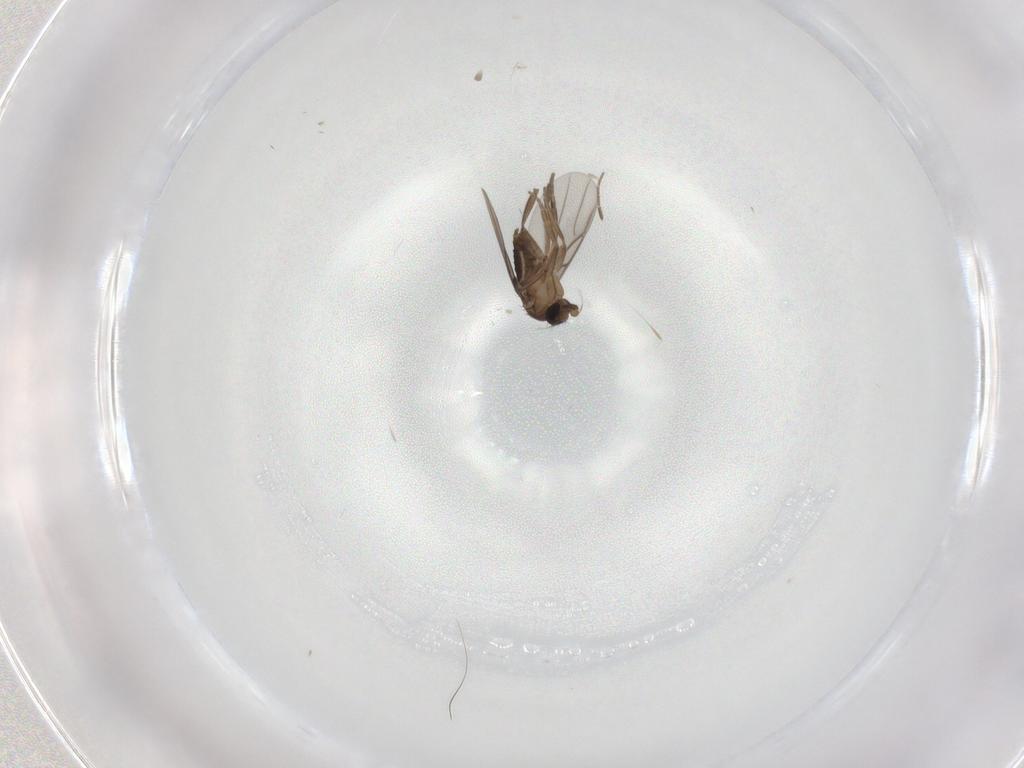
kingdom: Animalia
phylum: Arthropoda
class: Insecta
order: Diptera
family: Phoridae
